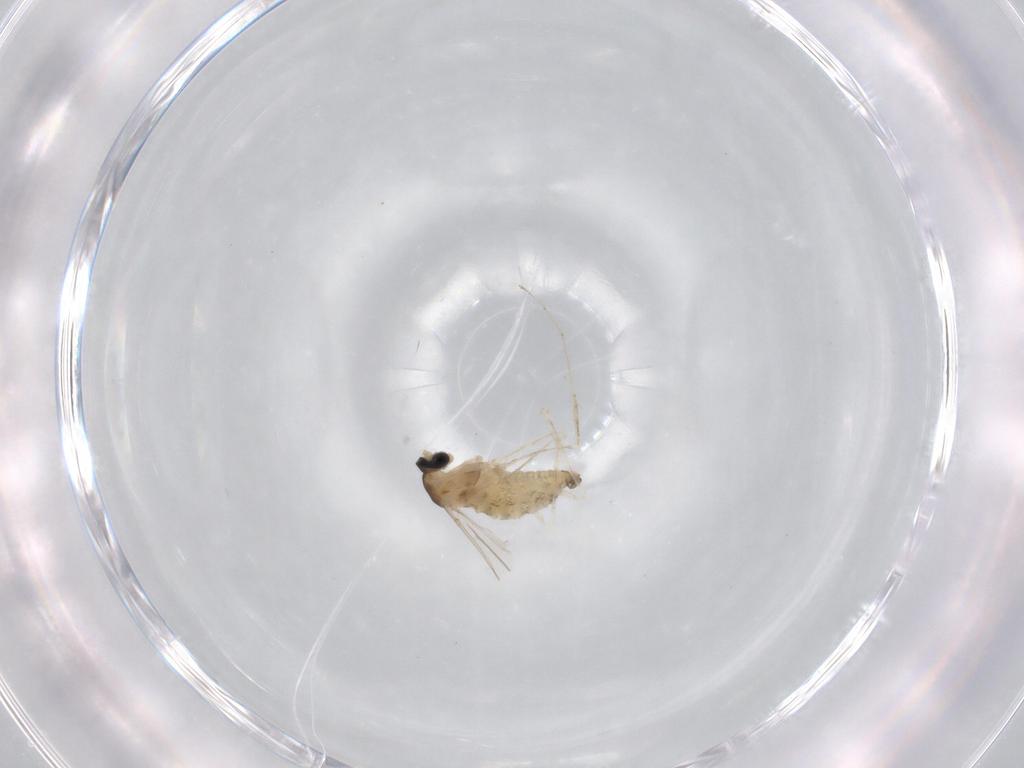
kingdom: Animalia
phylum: Arthropoda
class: Insecta
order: Diptera
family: Cecidomyiidae
